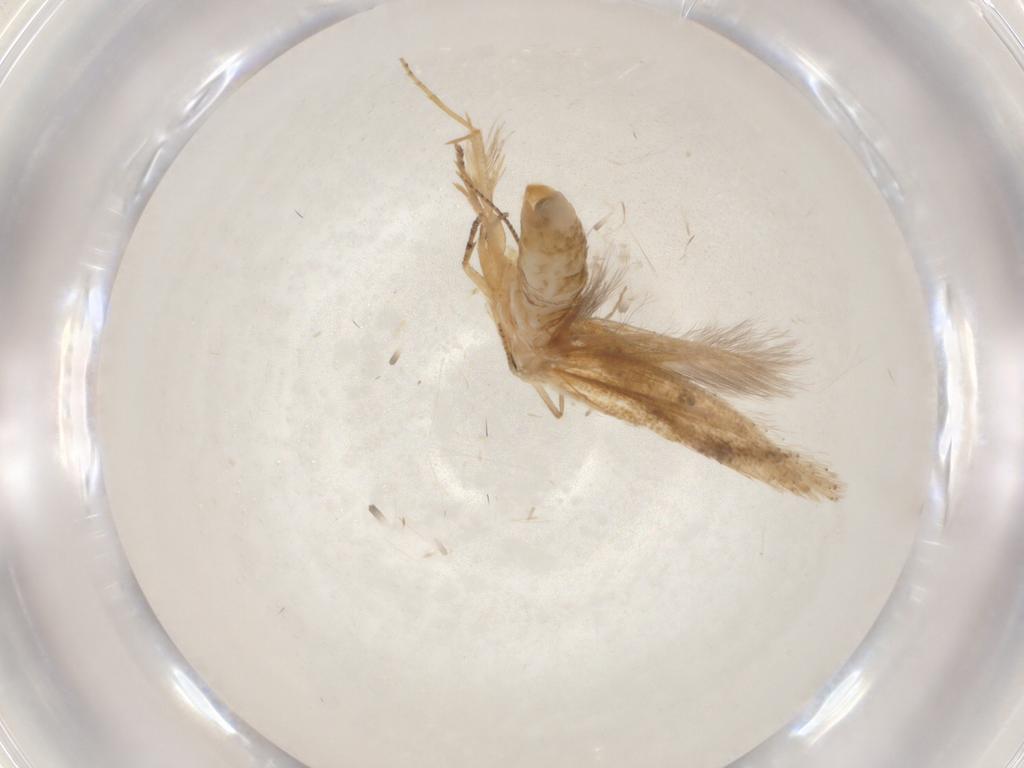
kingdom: Animalia
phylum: Arthropoda
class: Insecta
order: Lepidoptera
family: Bucculatricidae
